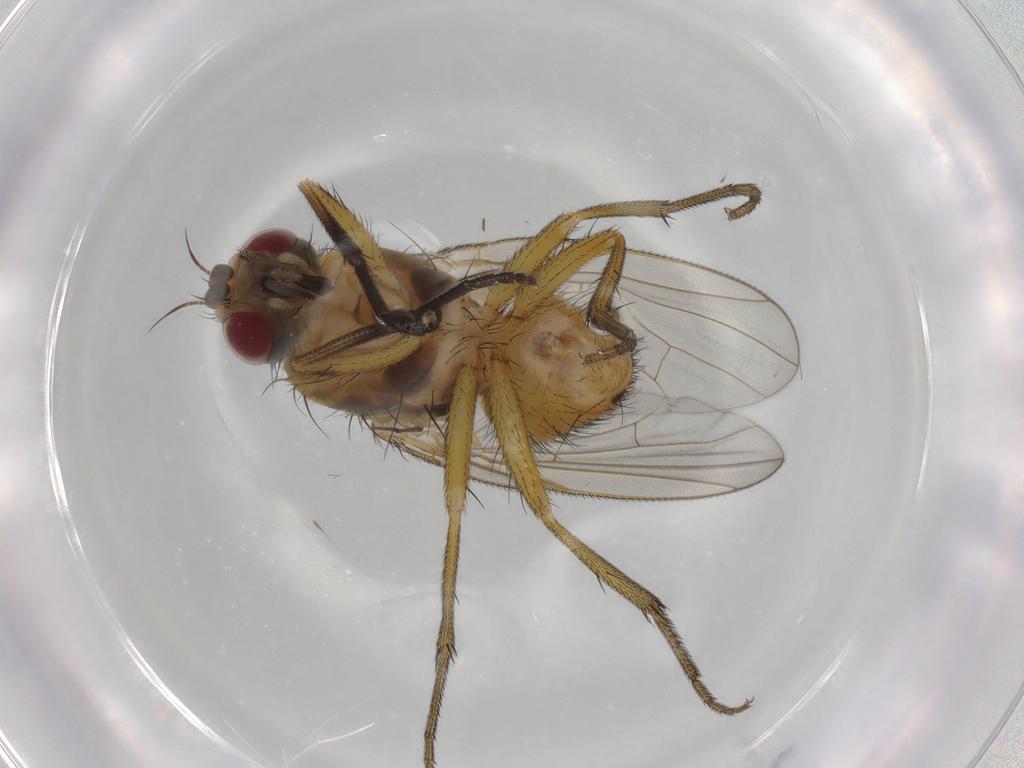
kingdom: Animalia
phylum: Arthropoda
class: Insecta
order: Diptera
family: Muscidae
